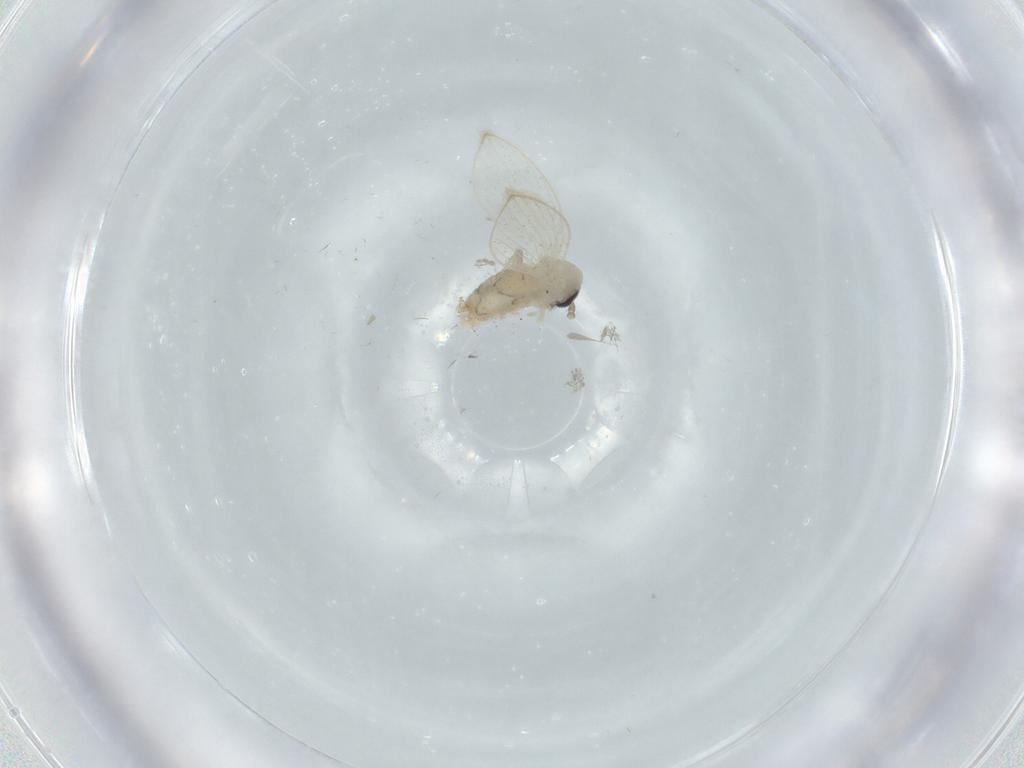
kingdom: Animalia
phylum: Arthropoda
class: Insecta
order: Diptera
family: Psychodidae
